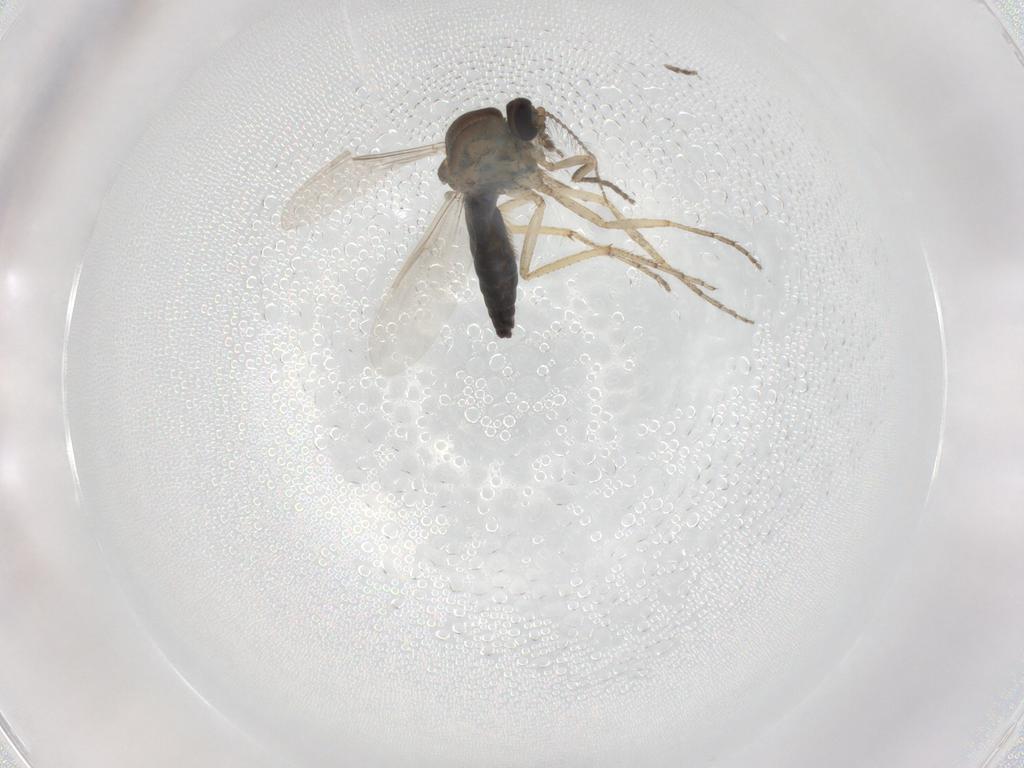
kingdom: Animalia
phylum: Arthropoda
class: Insecta
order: Diptera
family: Ceratopogonidae
